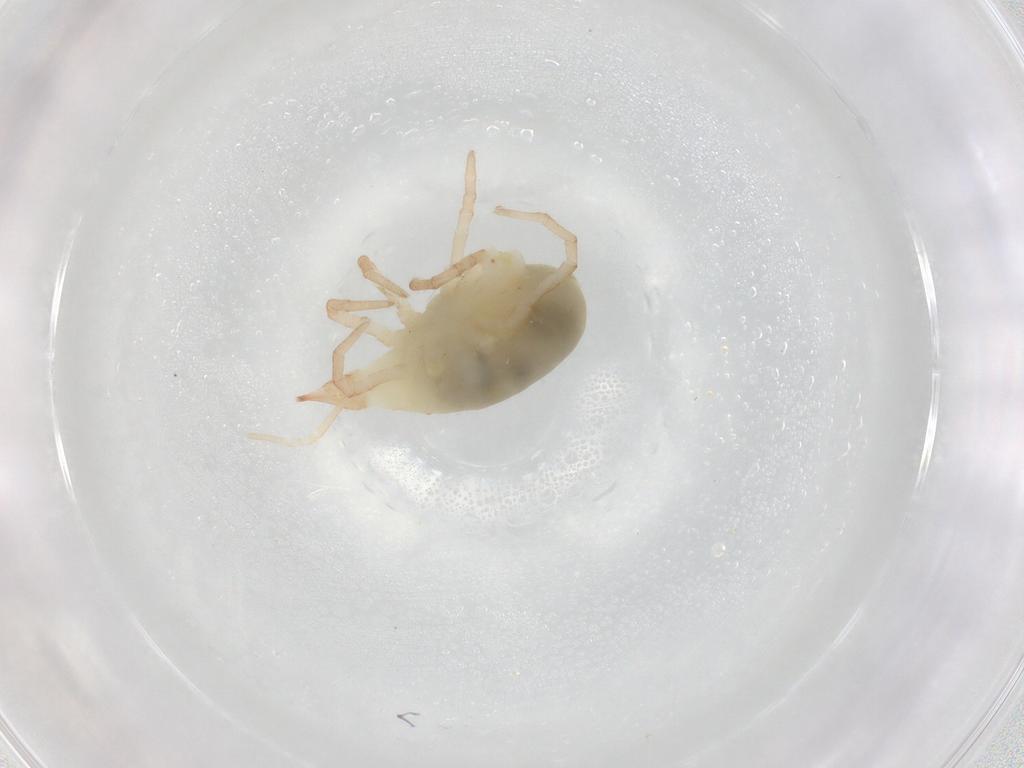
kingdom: Animalia
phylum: Arthropoda
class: Arachnida
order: Trombidiformes
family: Bdellidae
